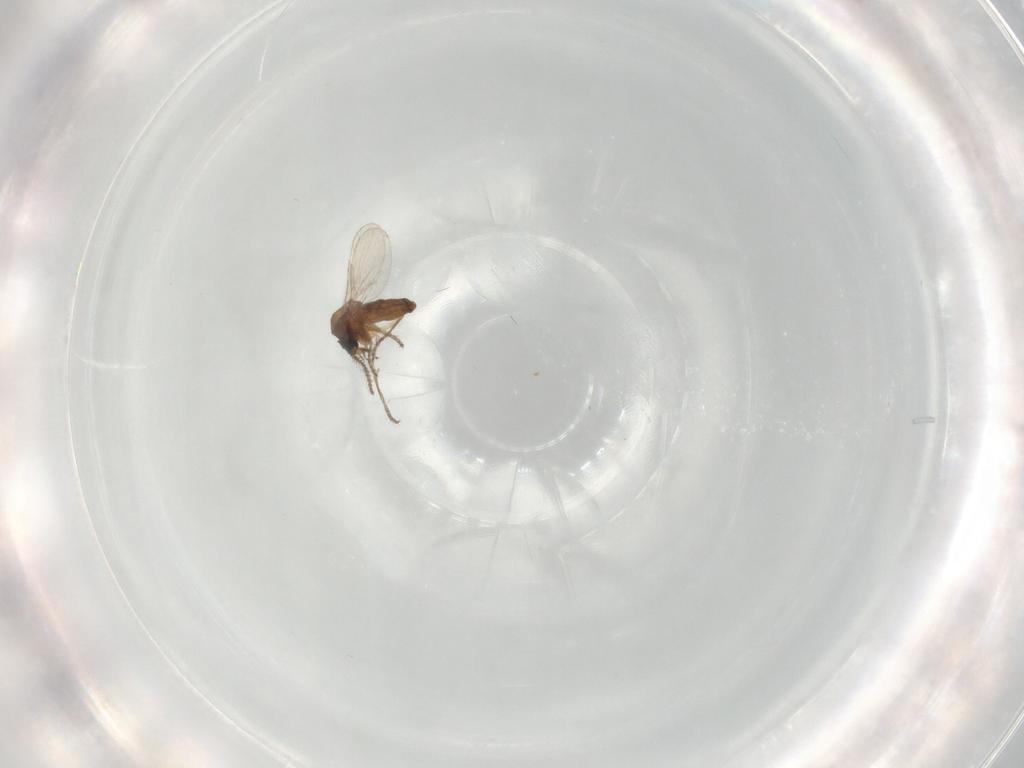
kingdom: Animalia
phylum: Arthropoda
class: Insecta
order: Diptera
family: Ceratopogonidae
